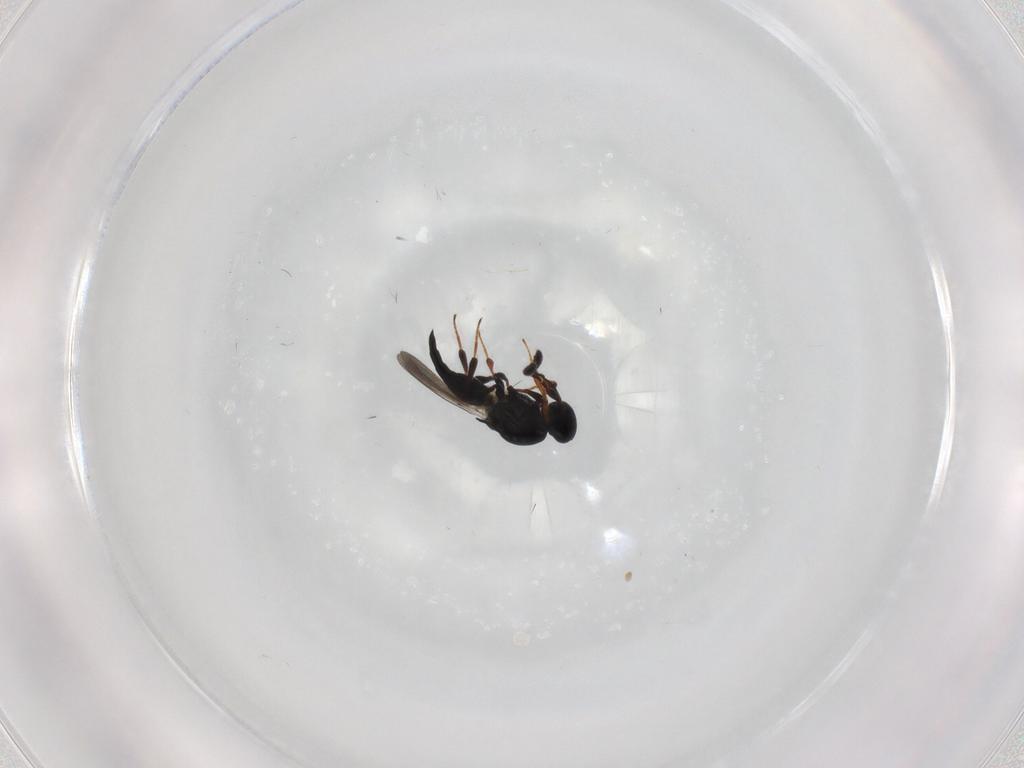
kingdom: Animalia
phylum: Arthropoda
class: Insecta
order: Hymenoptera
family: Platygastridae
